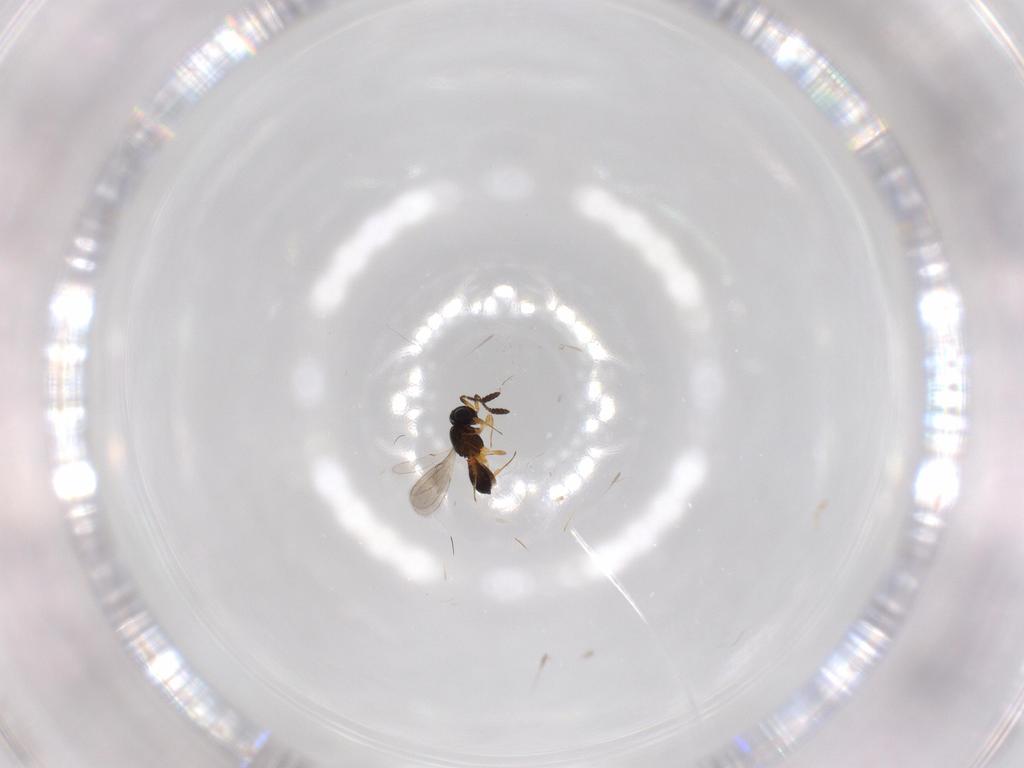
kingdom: Animalia
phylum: Arthropoda
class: Insecta
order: Hymenoptera
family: Scelionidae
